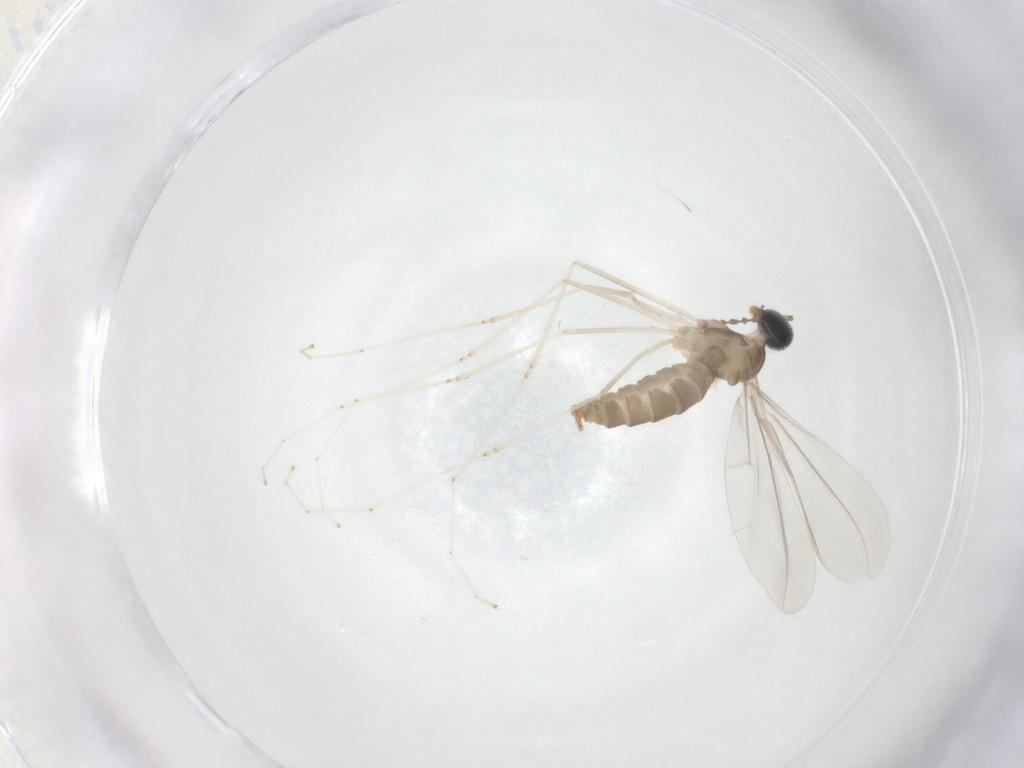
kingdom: Animalia
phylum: Arthropoda
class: Insecta
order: Diptera
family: Cecidomyiidae
